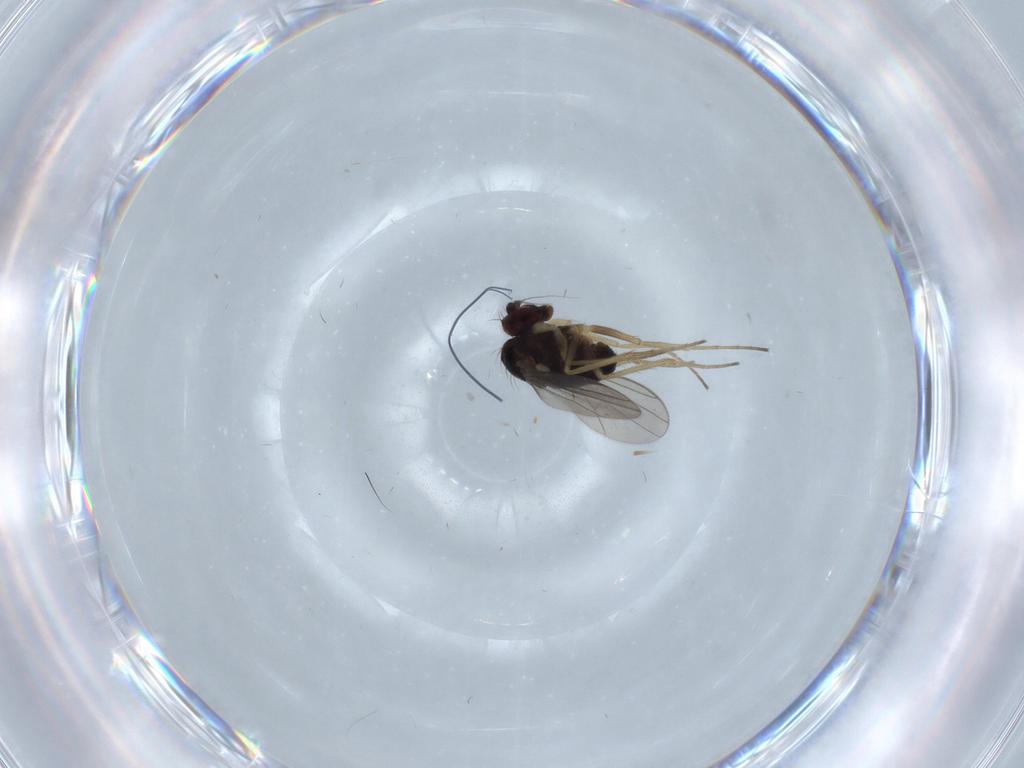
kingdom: Animalia
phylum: Arthropoda
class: Insecta
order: Diptera
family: Dolichopodidae
